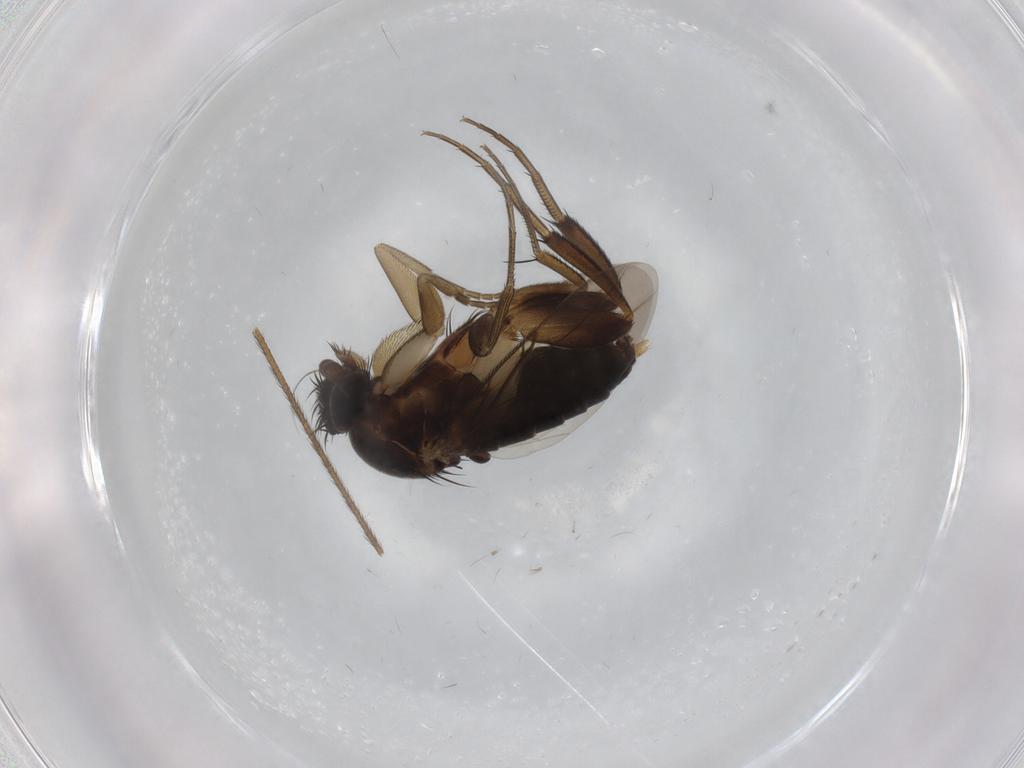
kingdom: Animalia
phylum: Arthropoda
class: Insecta
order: Diptera
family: Phoridae
